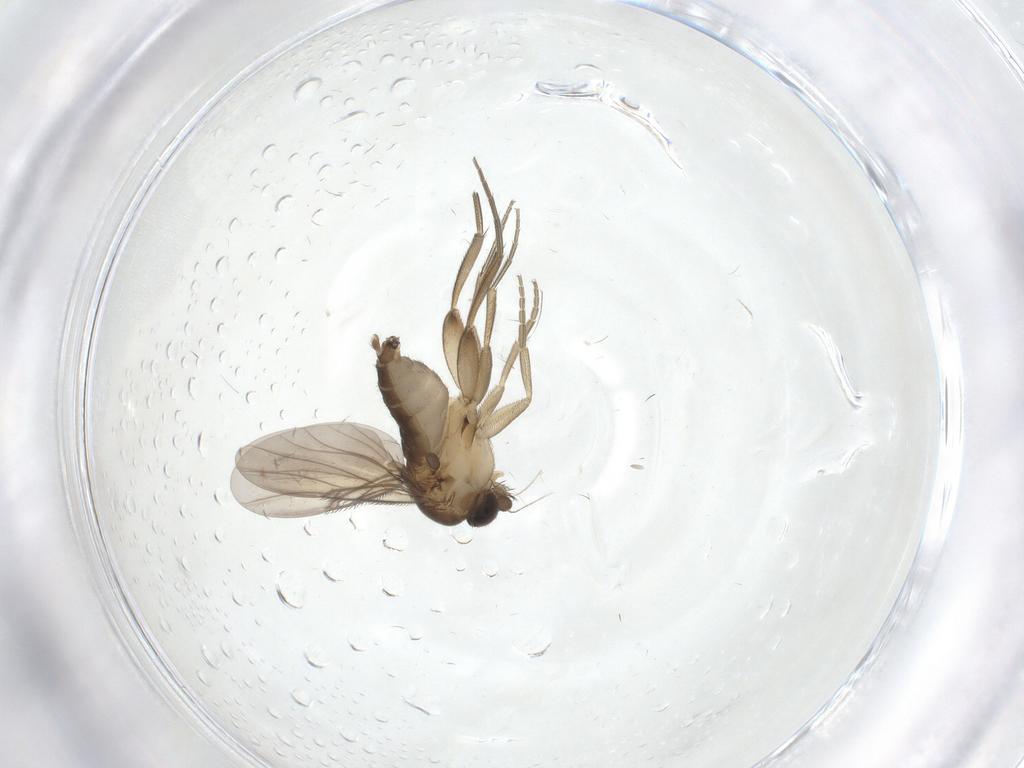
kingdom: Animalia
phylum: Arthropoda
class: Insecta
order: Diptera
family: Phoridae
